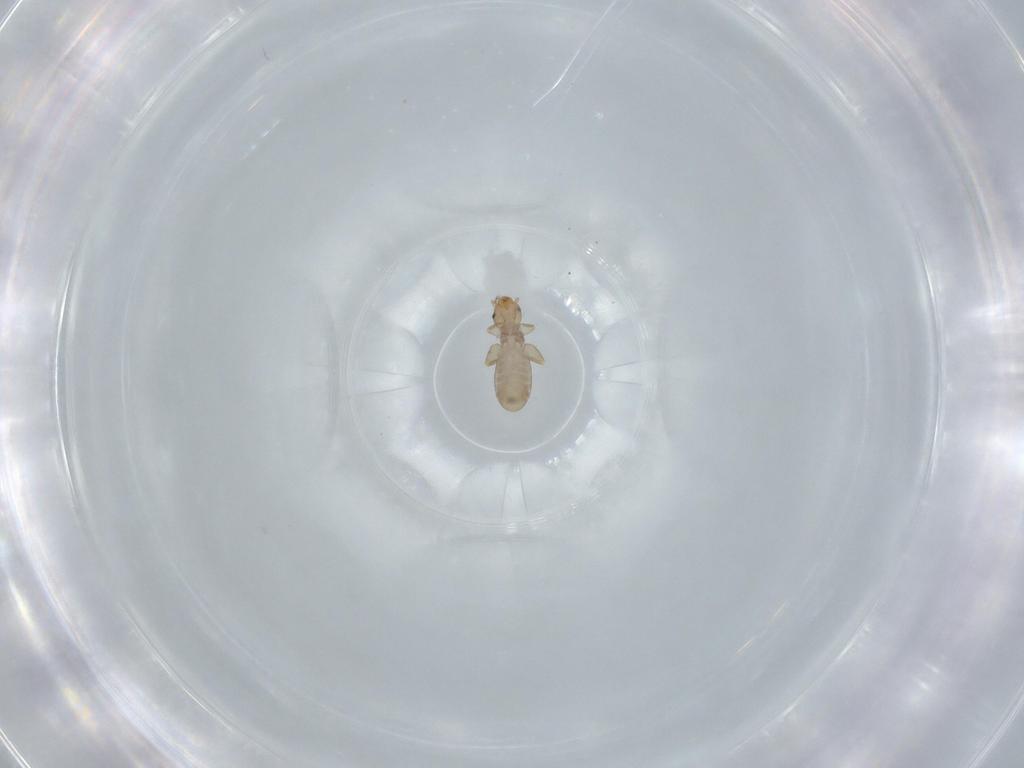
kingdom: Animalia
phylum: Arthropoda
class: Insecta
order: Psocodea
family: Liposcelididae
